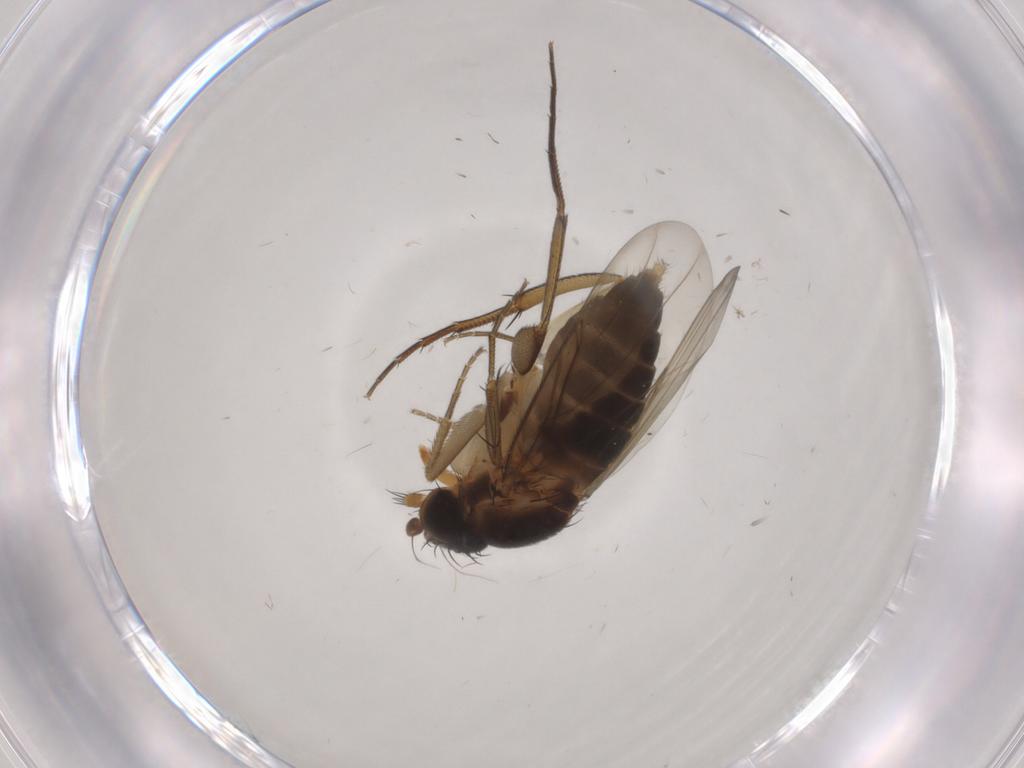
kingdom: Animalia
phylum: Arthropoda
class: Insecta
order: Diptera
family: Phoridae
